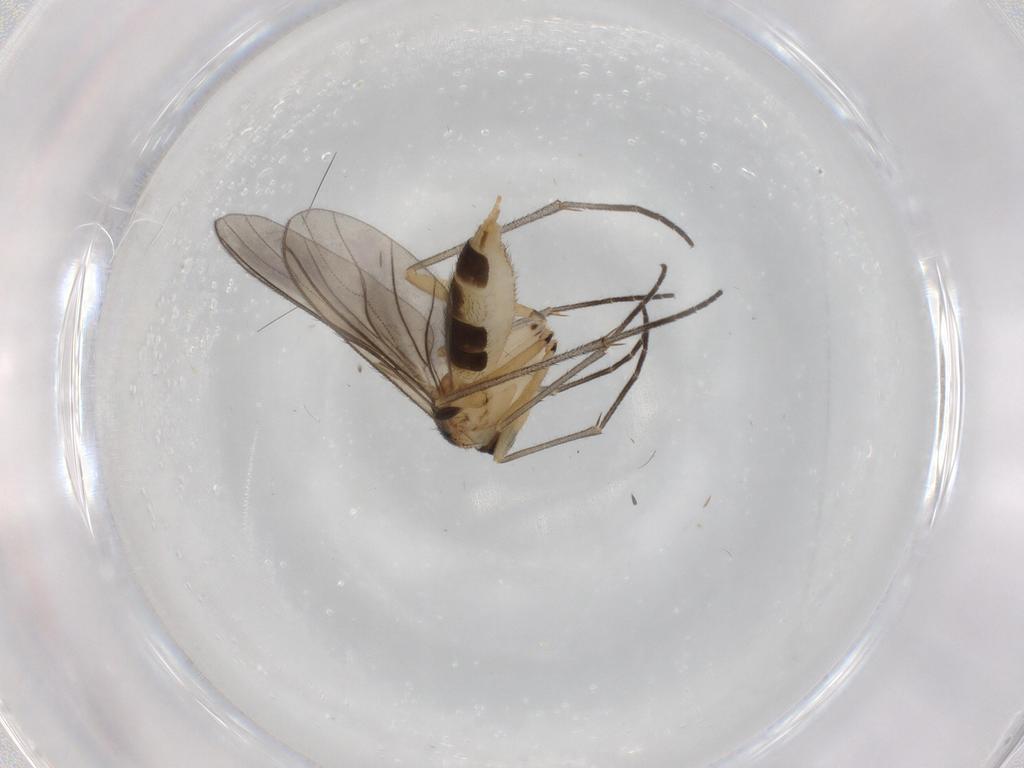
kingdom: Animalia
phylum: Arthropoda
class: Insecta
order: Diptera
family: Sciaridae
